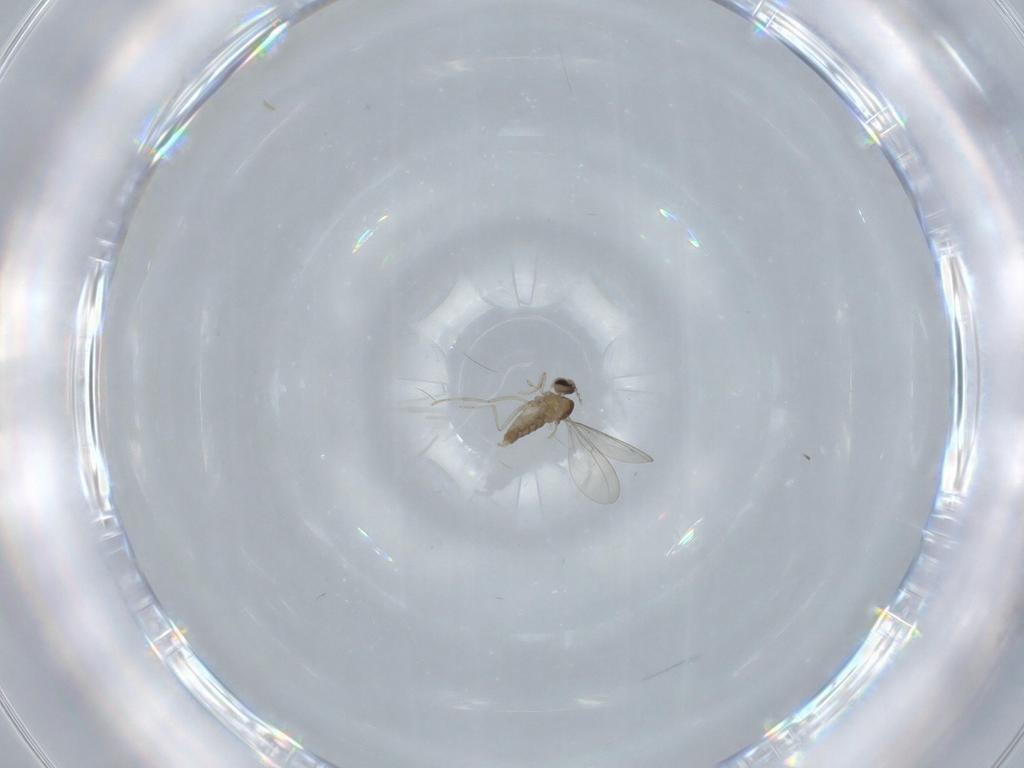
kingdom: Animalia
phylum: Arthropoda
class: Insecta
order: Diptera
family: Cecidomyiidae
